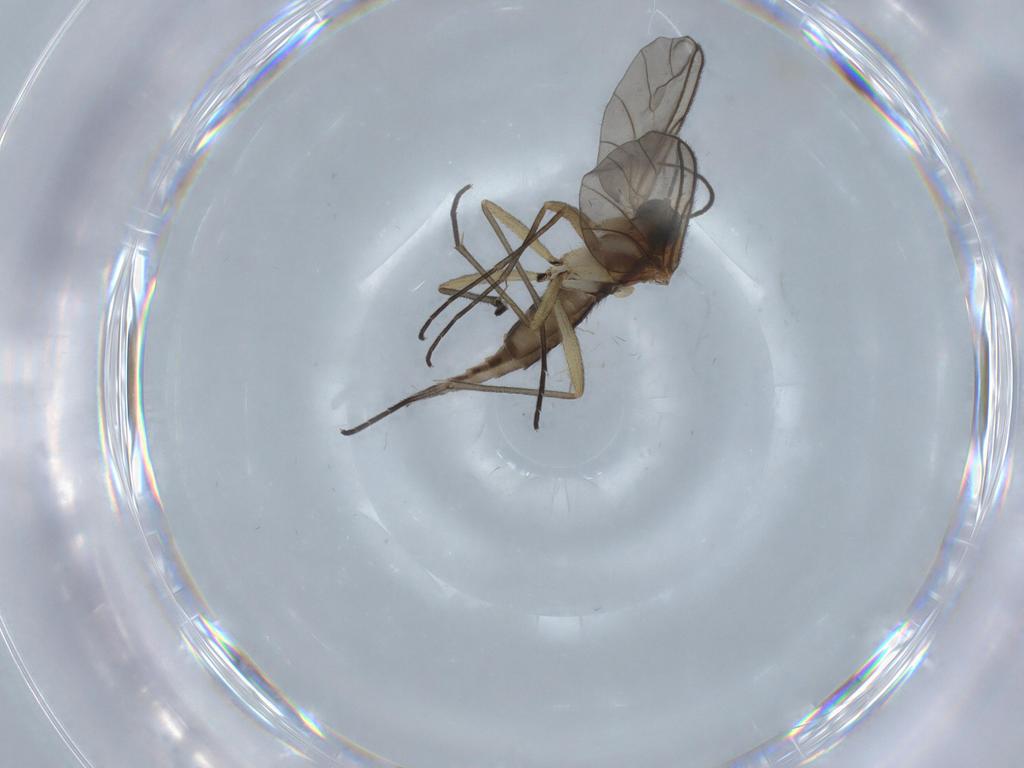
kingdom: Animalia
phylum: Arthropoda
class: Insecta
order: Diptera
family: Sciaridae
